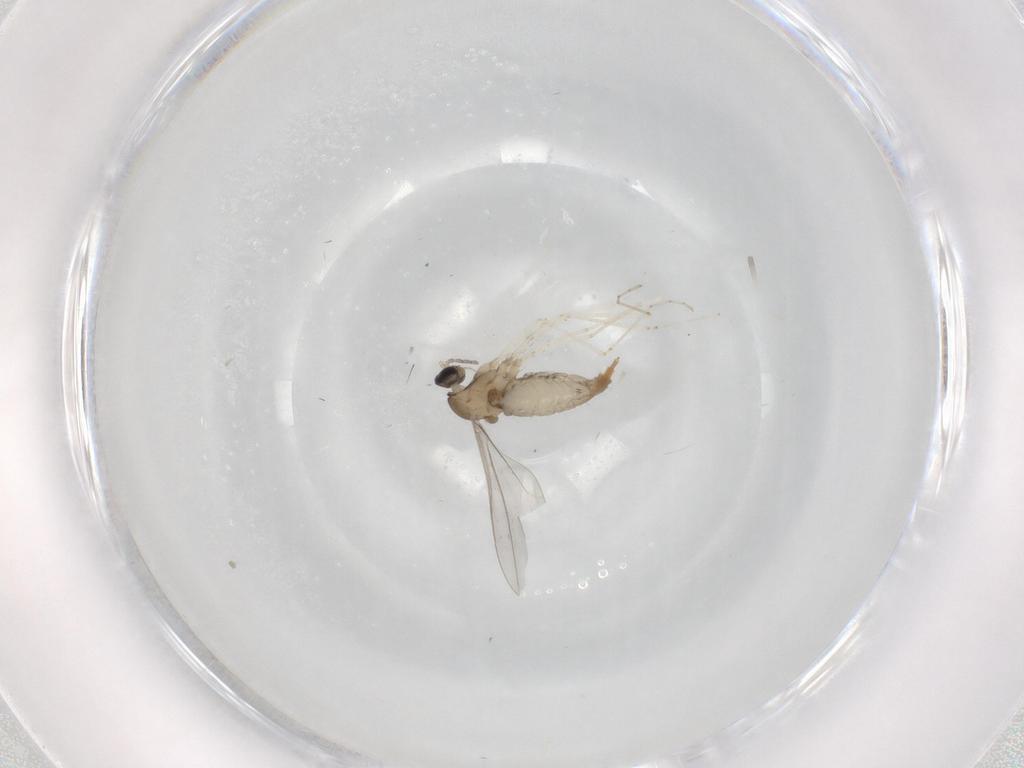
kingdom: Animalia
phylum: Arthropoda
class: Insecta
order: Diptera
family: Cecidomyiidae
